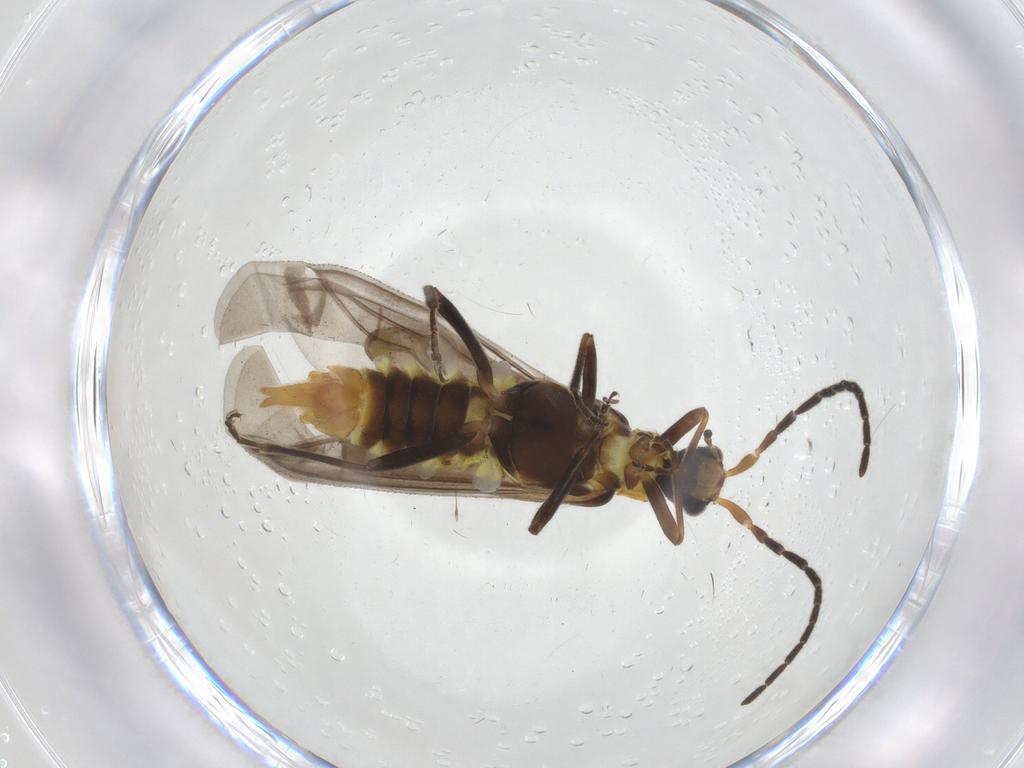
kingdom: Animalia
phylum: Arthropoda
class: Insecta
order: Coleoptera
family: Cantharidae
